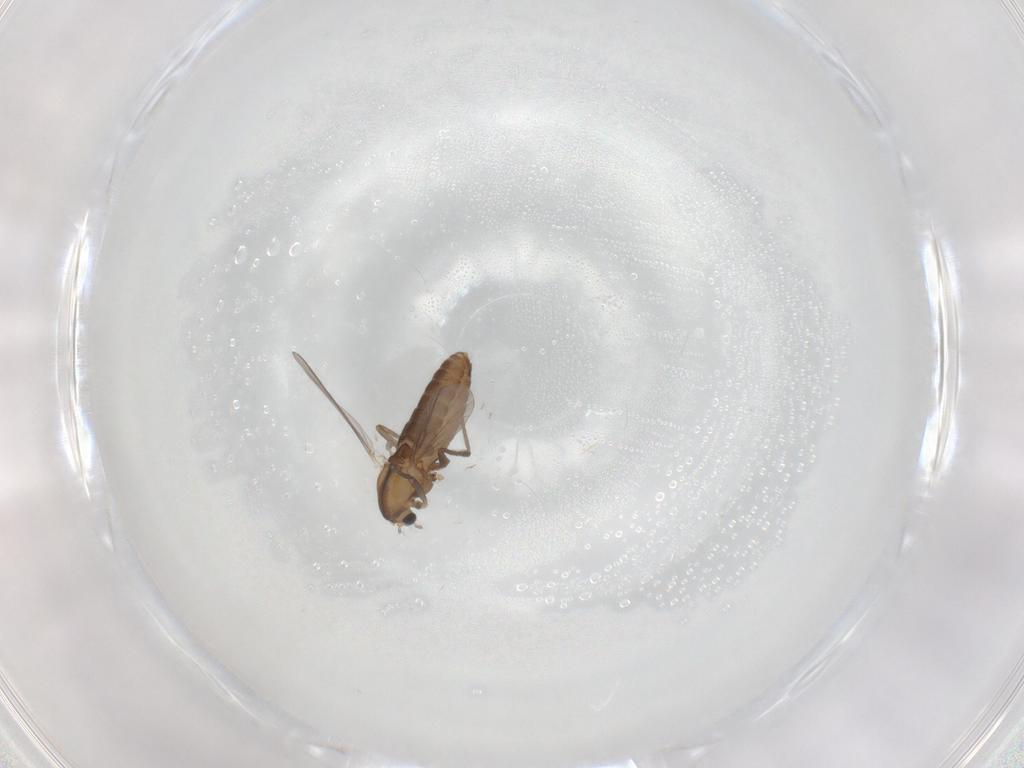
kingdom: Animalia
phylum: Arthropoda
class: Insecta
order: Diptera
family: Chironomidae
